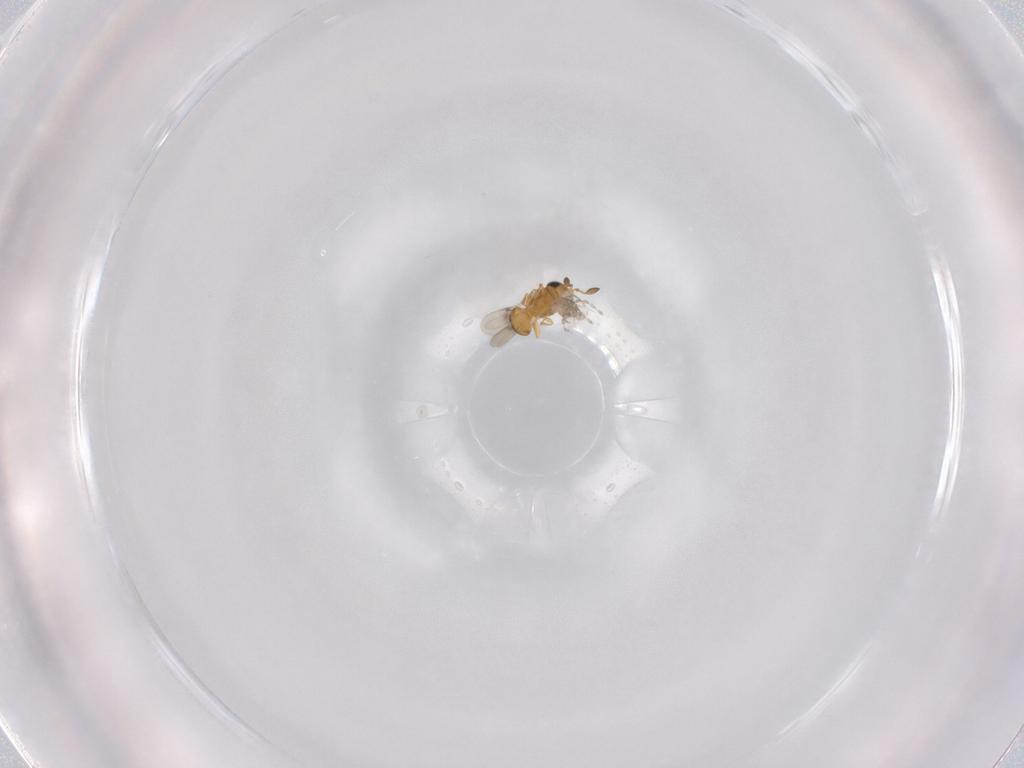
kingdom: Animalia
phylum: Arthropoda
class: Insecta
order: Hymenoptera
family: Scelionidae
